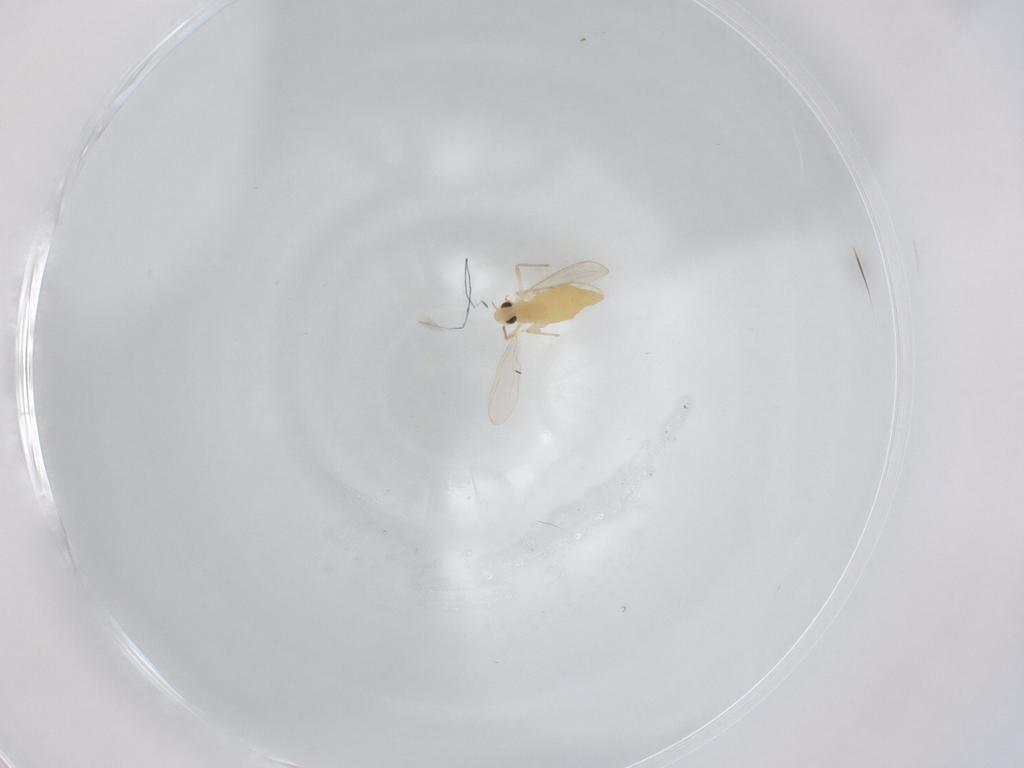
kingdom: Animalia
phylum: Arthropoda
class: Insecta
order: Diptera
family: Chironomidae
